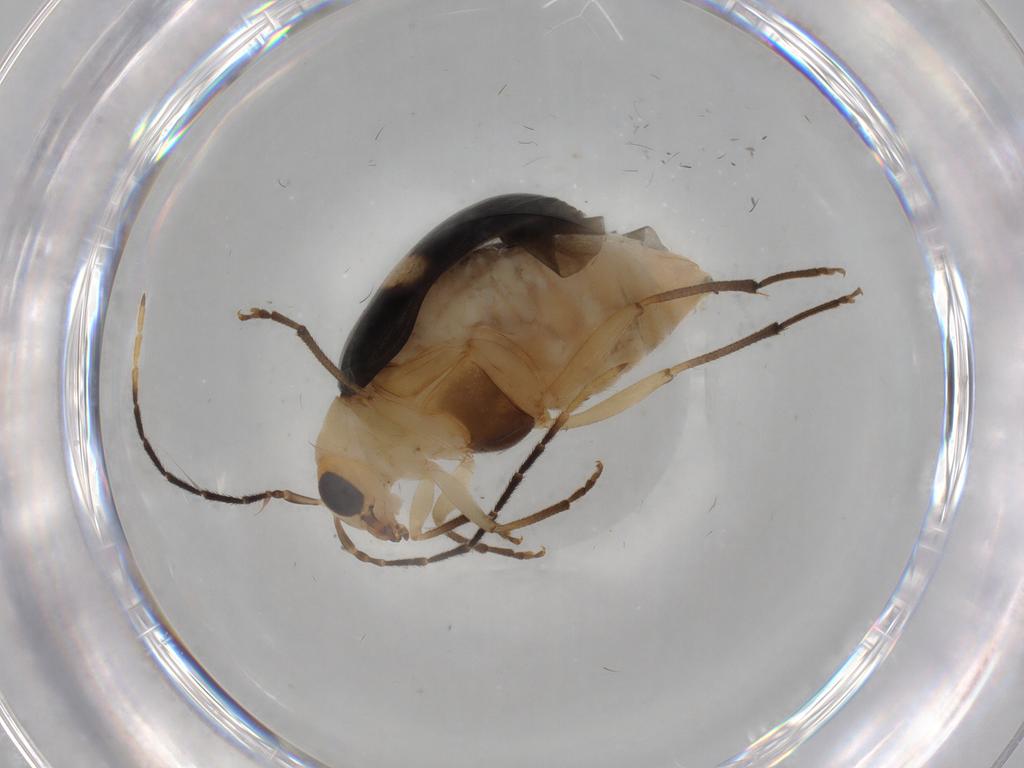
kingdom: Animalia
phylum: Arthropoda
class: Insecta
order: Coleoptera
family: Chrysomelidae
